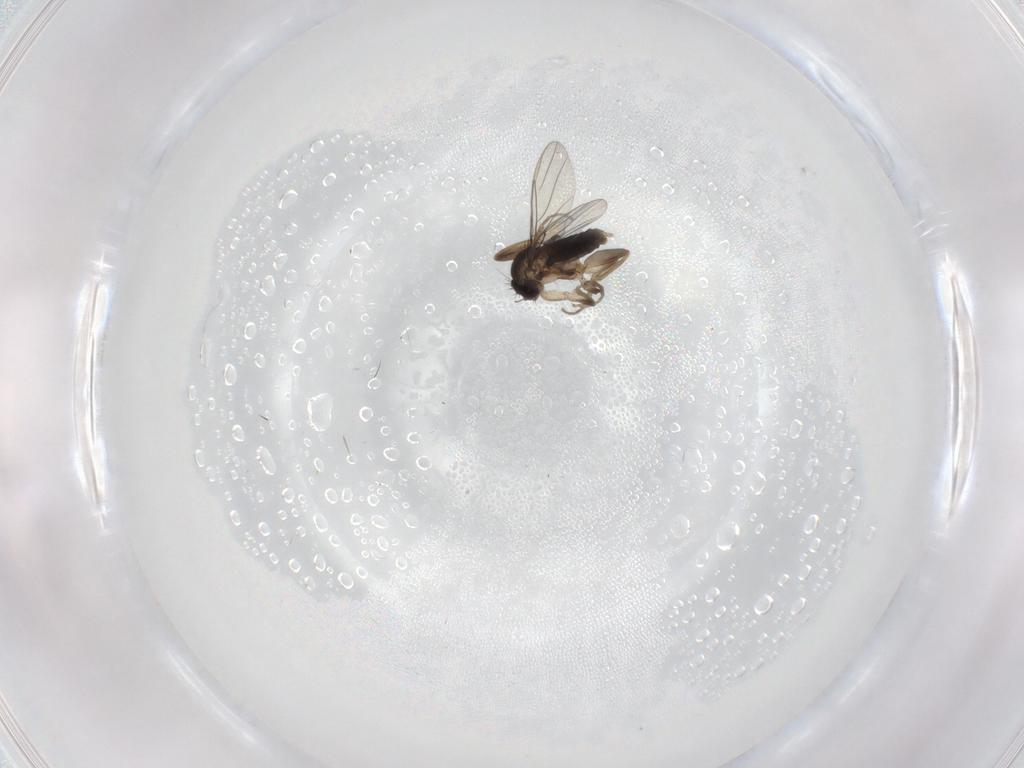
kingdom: Animalia
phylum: Arthropoda
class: Insecta
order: Diptera
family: Phoridae
